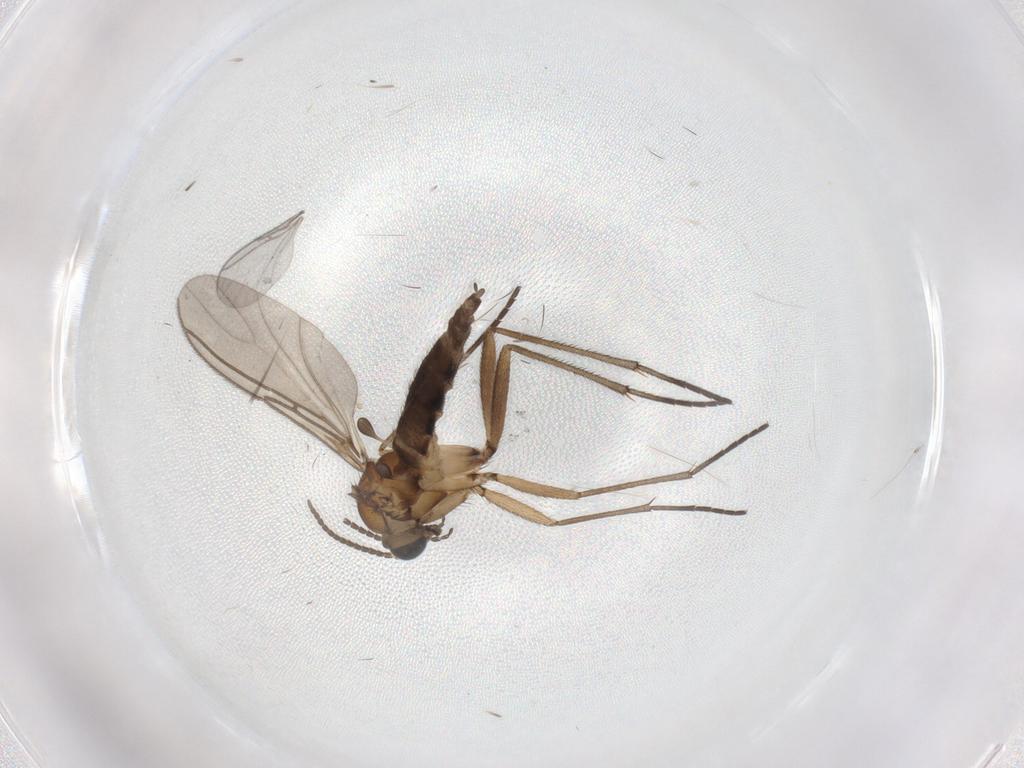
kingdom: Animalia
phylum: Arthropoda
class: Insecta
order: Diptera
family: Sciaridae
